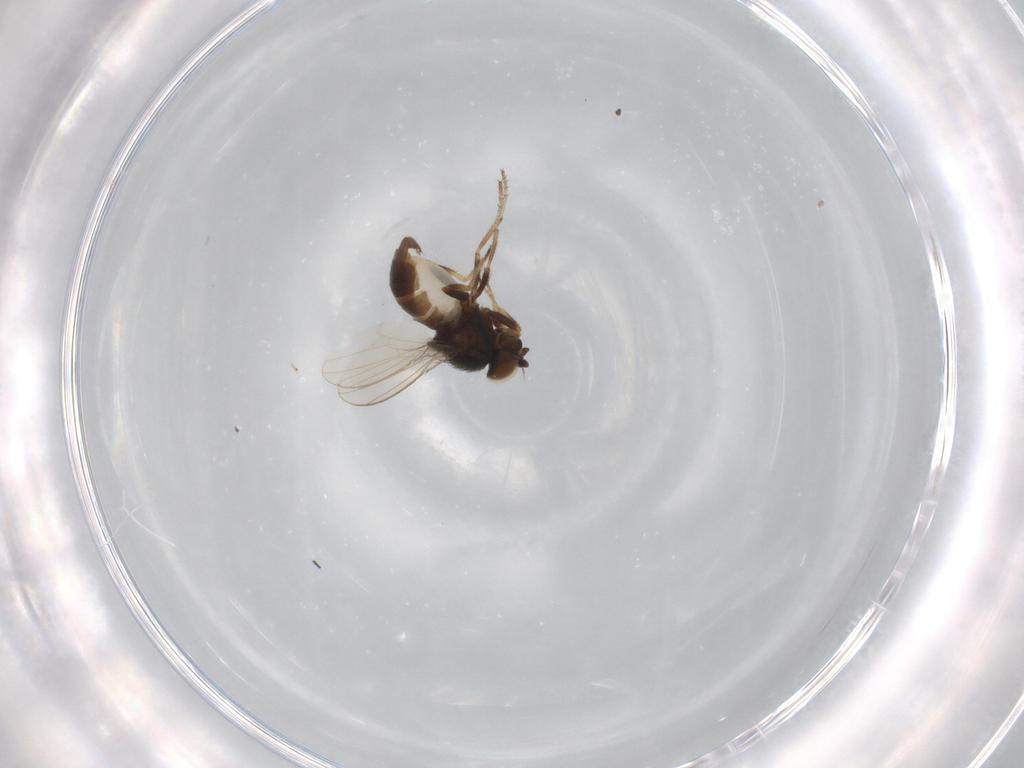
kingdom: Animalia
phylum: Arthropoda
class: Insecta
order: Diptera
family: Ephydridae
